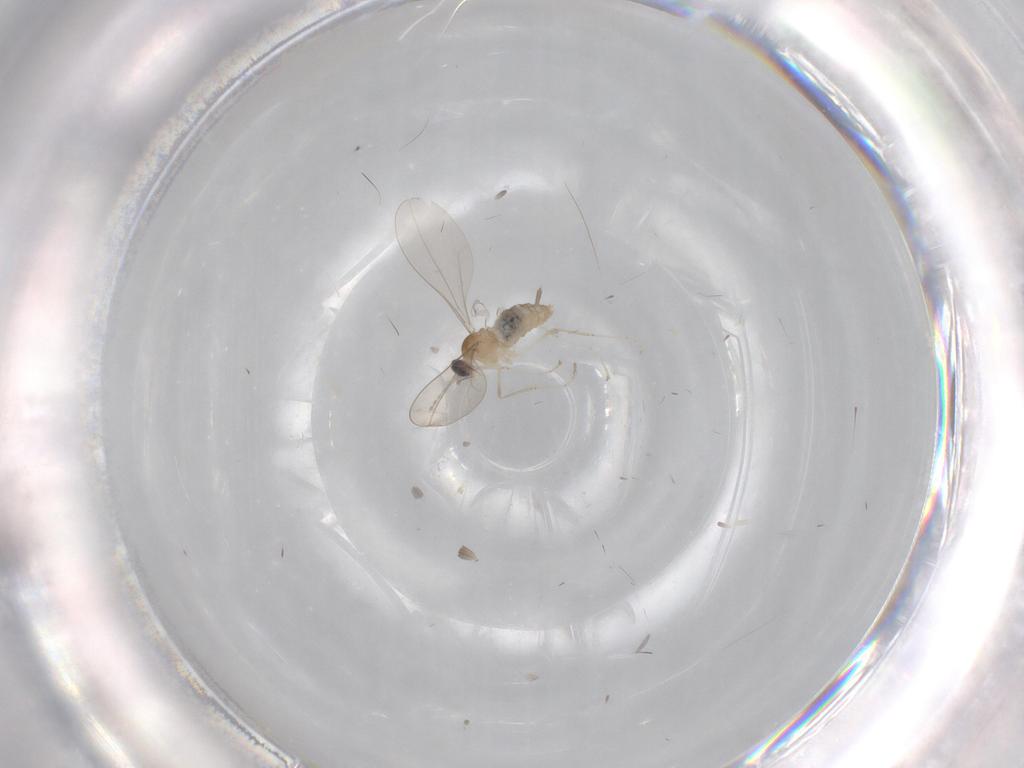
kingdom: Animalia
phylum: Arthropoda
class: Insecta
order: Diptera
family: Cecidomyiidae
